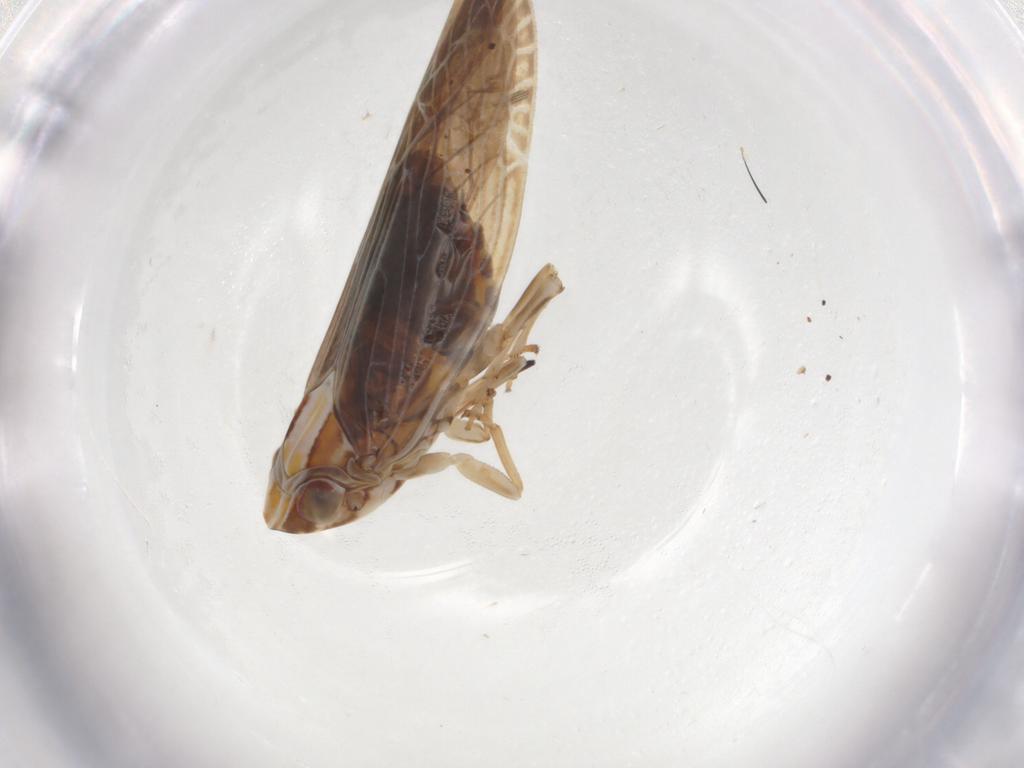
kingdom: Animalia
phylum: Arthropoda
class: Insecta
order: Hemiptera
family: Achilidae
